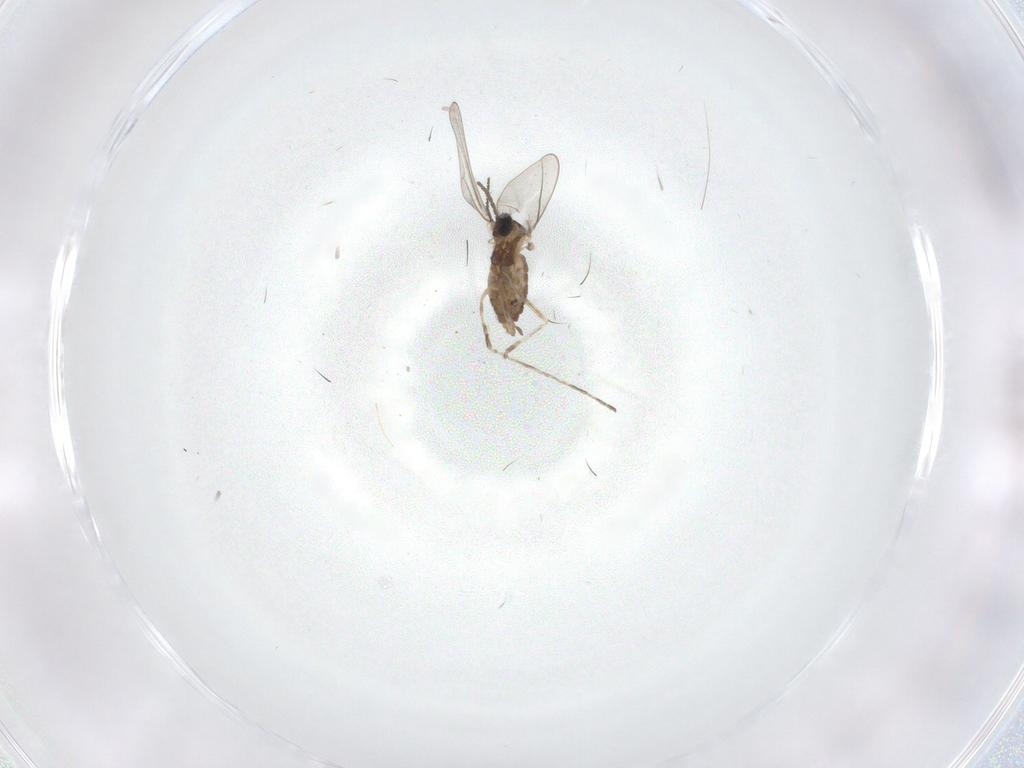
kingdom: Animalia
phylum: Arthropoda
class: Insecta
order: Diptera
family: Cecidomyiidae
